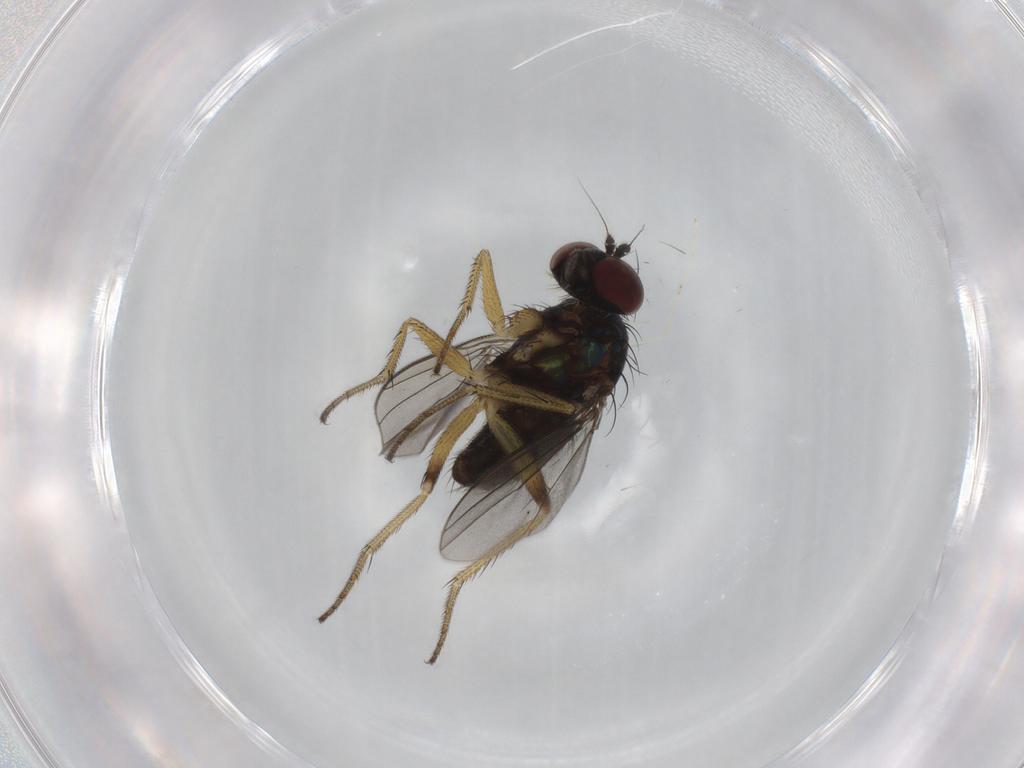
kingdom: Animalia
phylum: Arthropoda
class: Insecta
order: Diptera
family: Dolichopodidae
